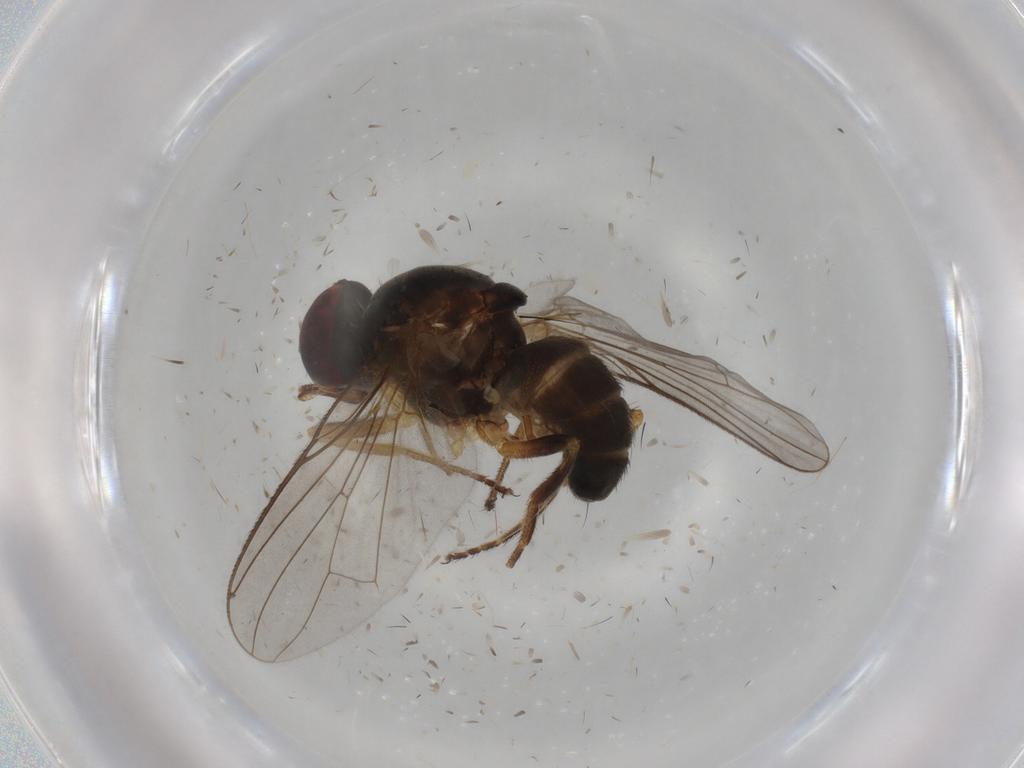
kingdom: Animalia
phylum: Arthropoda
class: Insecta
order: Diptera
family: Muscidae
